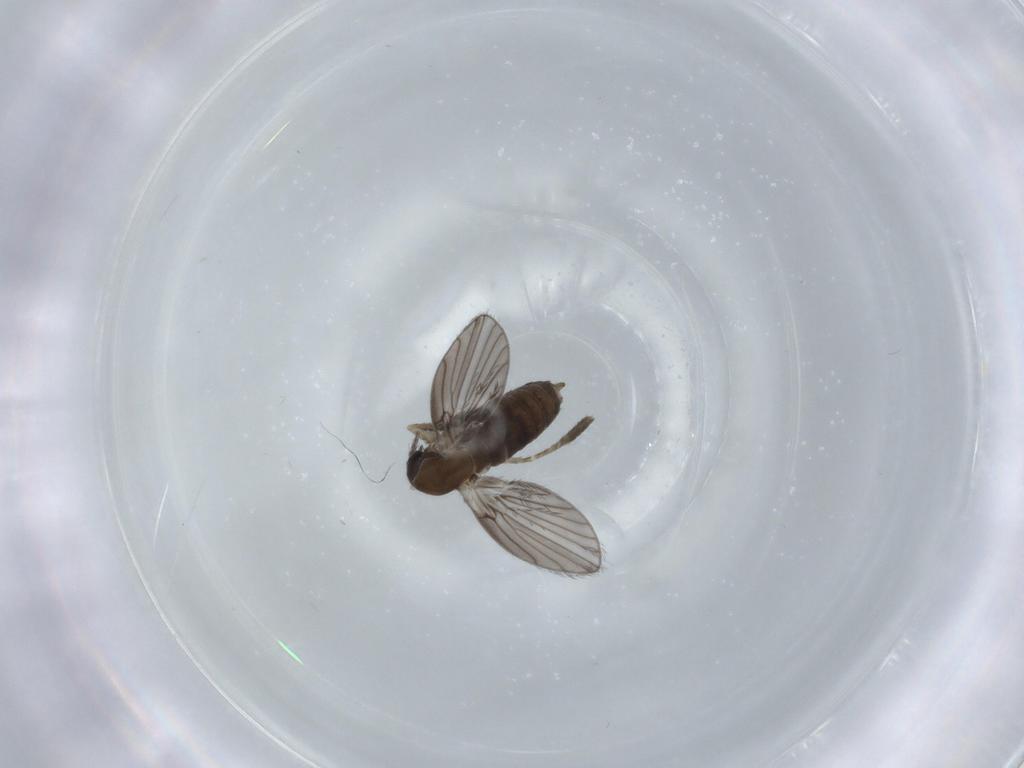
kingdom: Animalia
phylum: Arthropoda
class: Insecta
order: Diptera
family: Psychodidae
